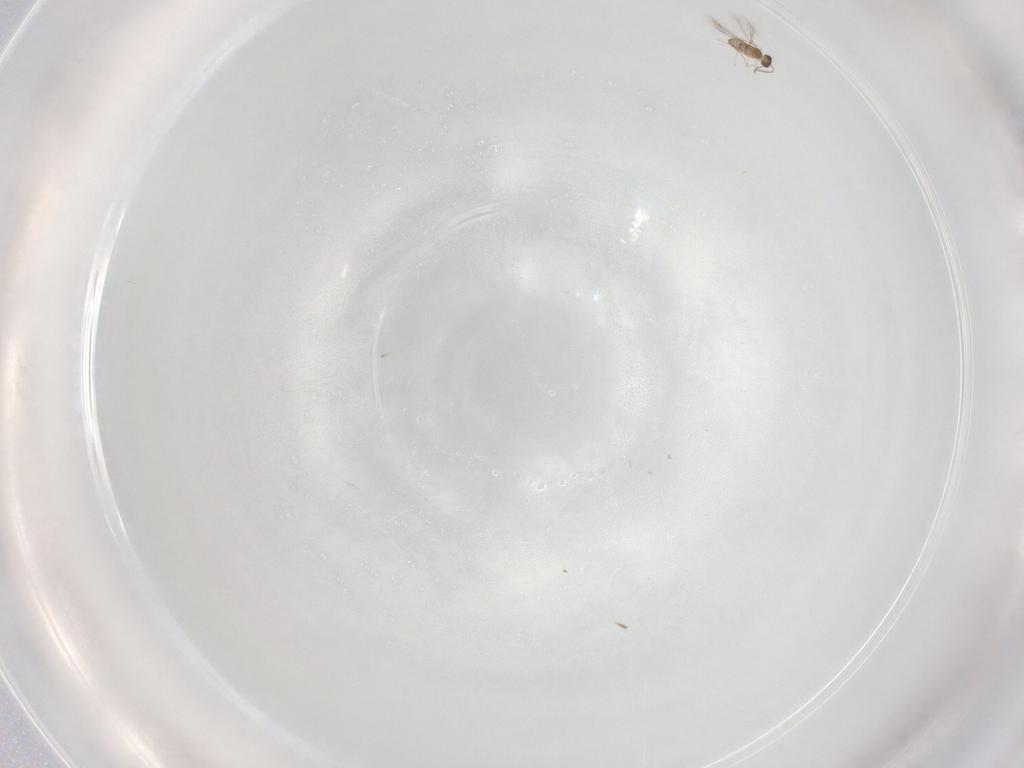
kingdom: Animalia
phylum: Arthropoda
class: Insecta
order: Hymenoptera
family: Mymaridae
